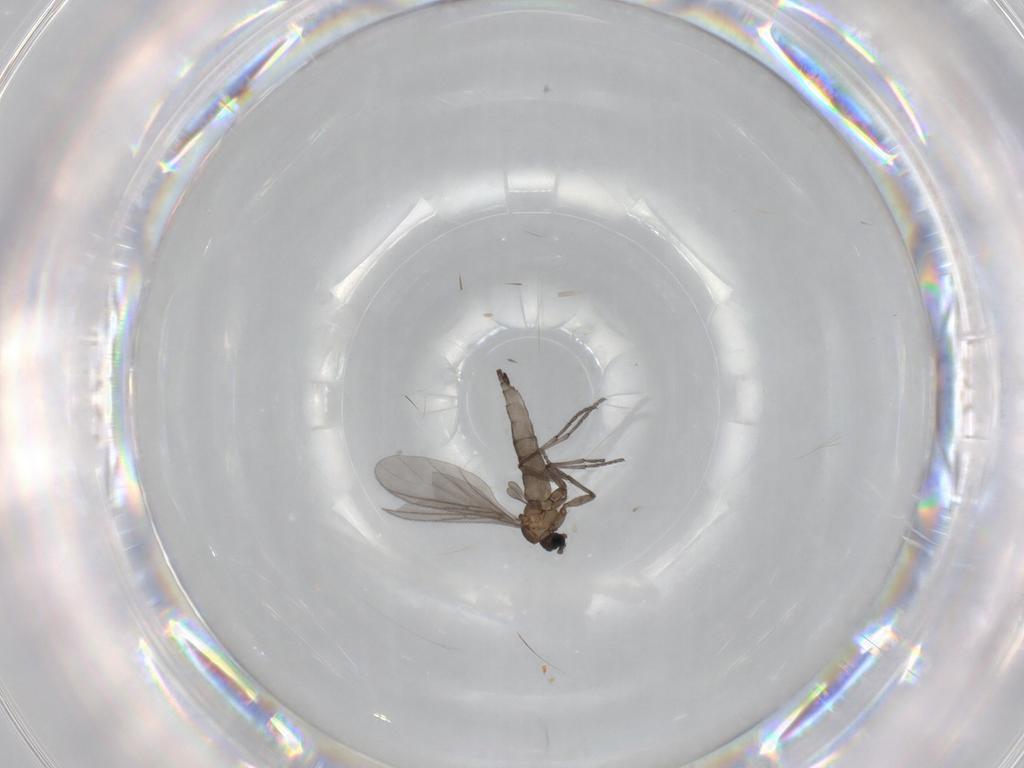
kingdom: Animalia
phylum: Arthropoda
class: Insecta
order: Diptera
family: Sciaridae
